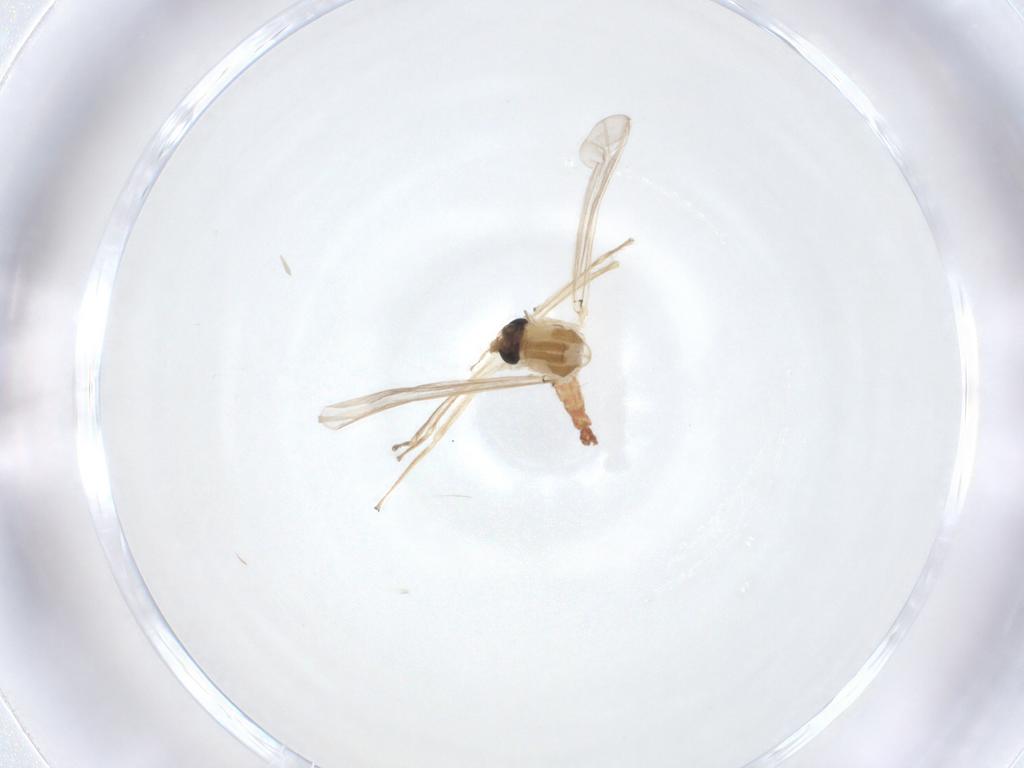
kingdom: Animalia
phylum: Arthropoda
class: Insecta
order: Diptera
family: Chironomidae
